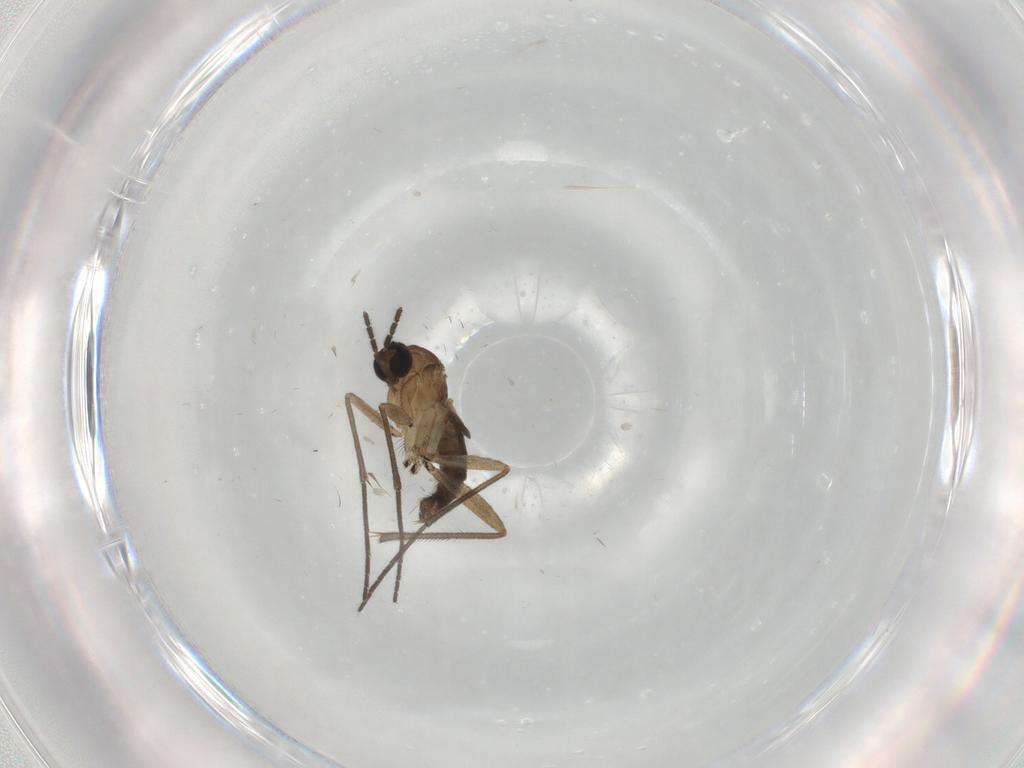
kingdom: Animalia
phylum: Arthropoda
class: Insecta
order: Diptera
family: Sciaridae
